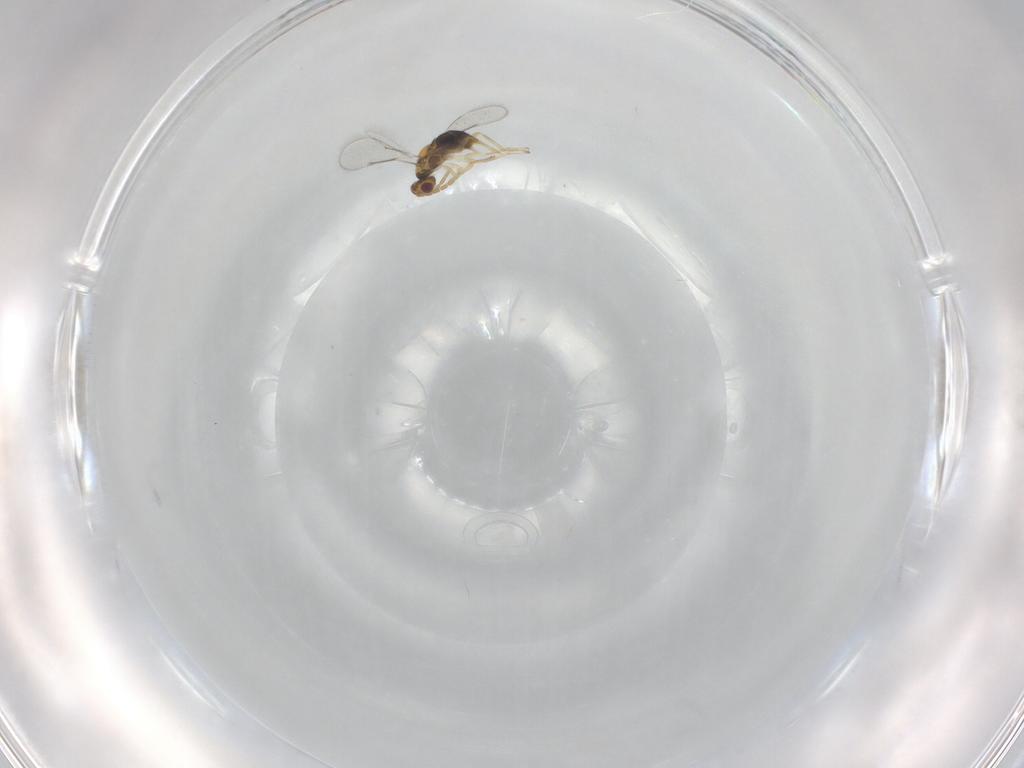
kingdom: Animalia
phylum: Arthropoda
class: Insecta
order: Hymenoptera
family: Aphelinidae
